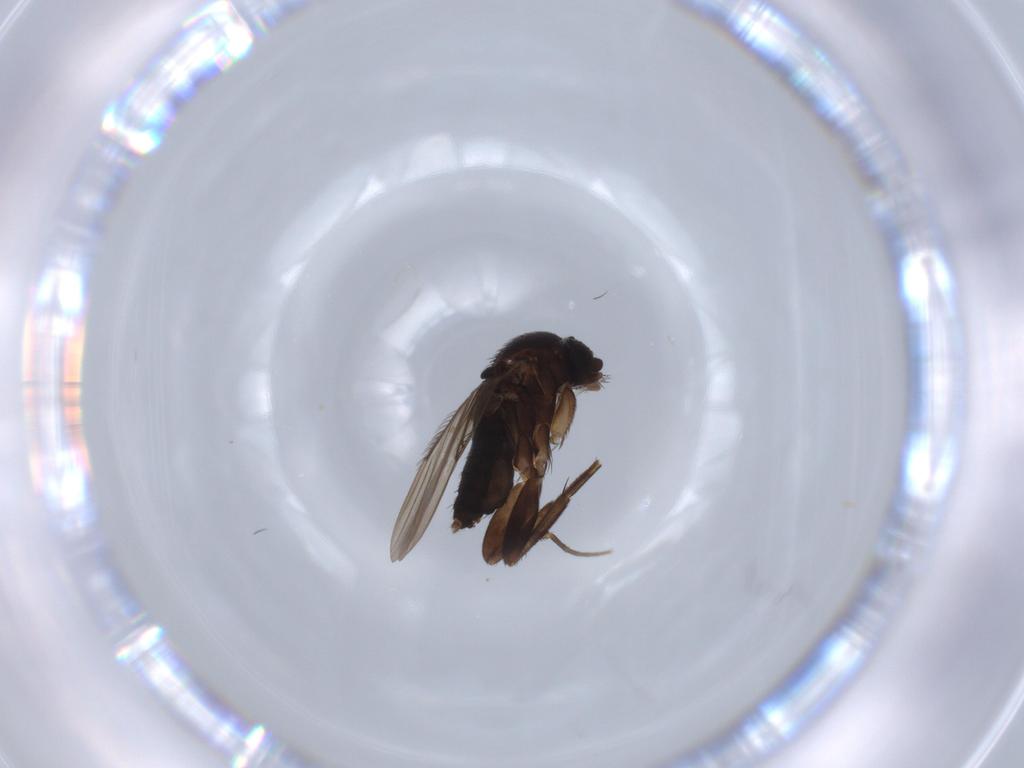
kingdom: Animalia
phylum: Arthropoda
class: Insecta
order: Diptera
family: Phoridae
